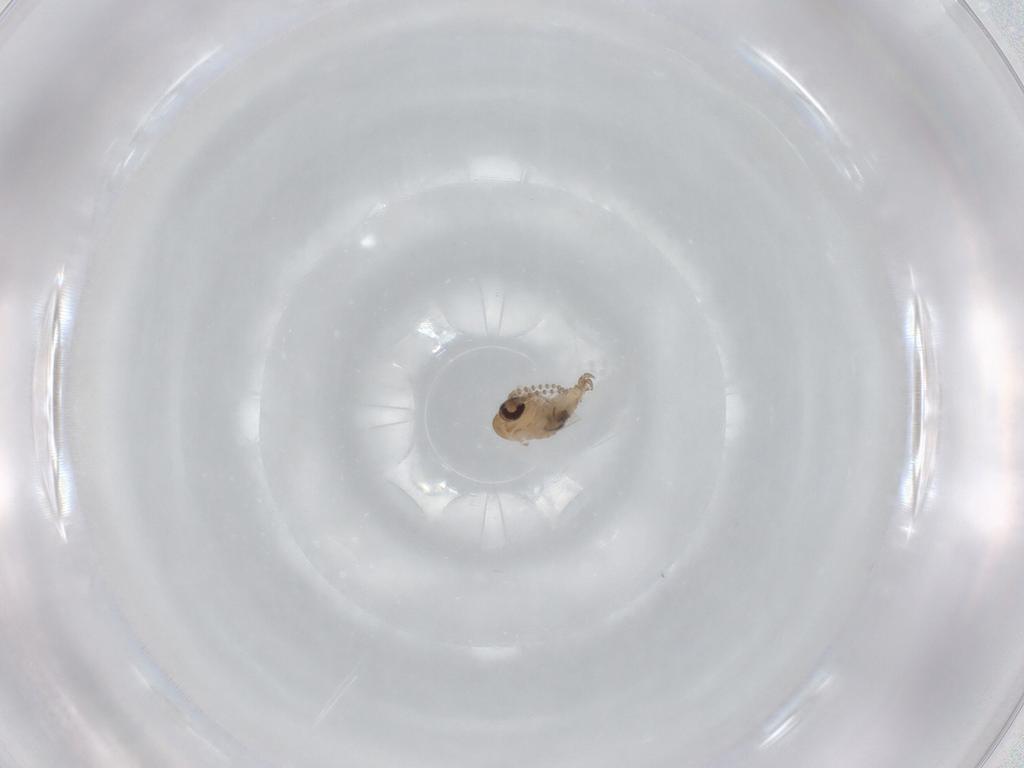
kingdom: Animalia
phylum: Arthropoda
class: Insecta
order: Diptera
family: Psychodidae
